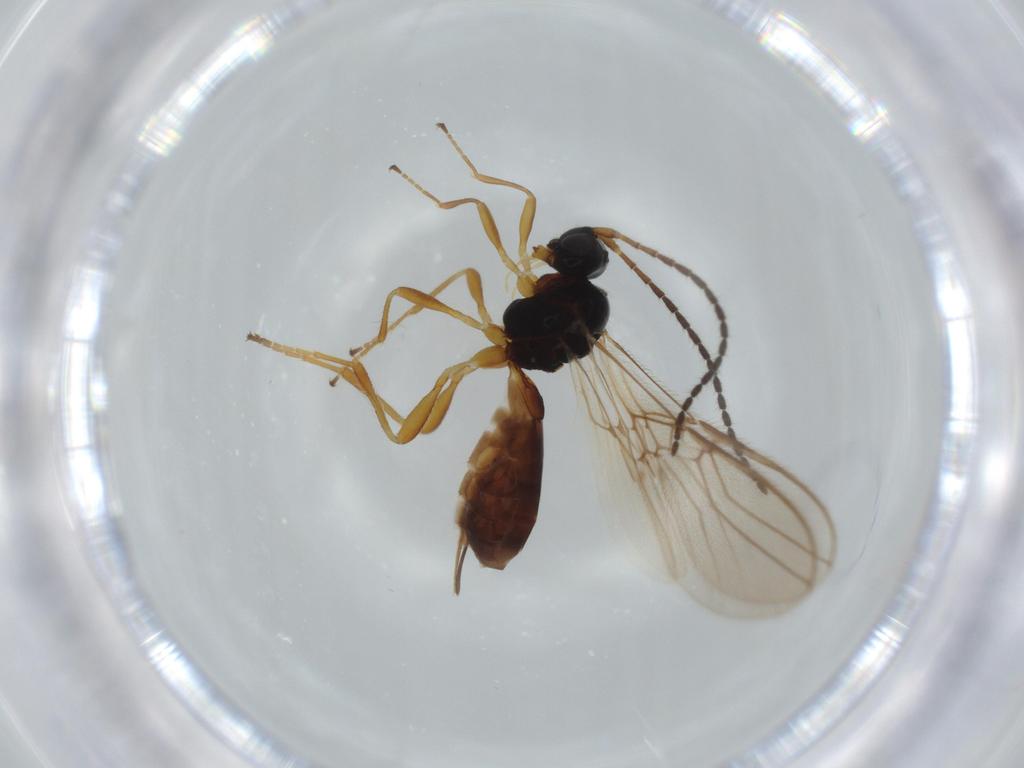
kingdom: Animalia
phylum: Arthropoda
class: Insecta
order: Hymenoptera
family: Braconidae
